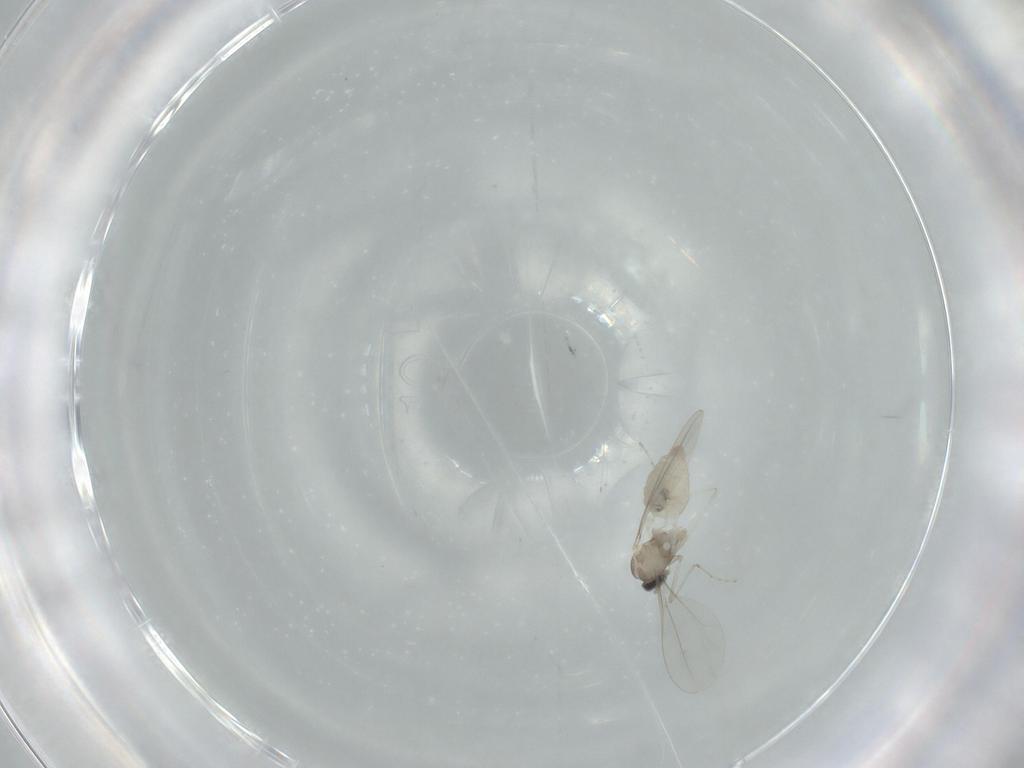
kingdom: Animalia
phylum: Arthropoda
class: Insecta
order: Diptera
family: Cecidomyiidae
